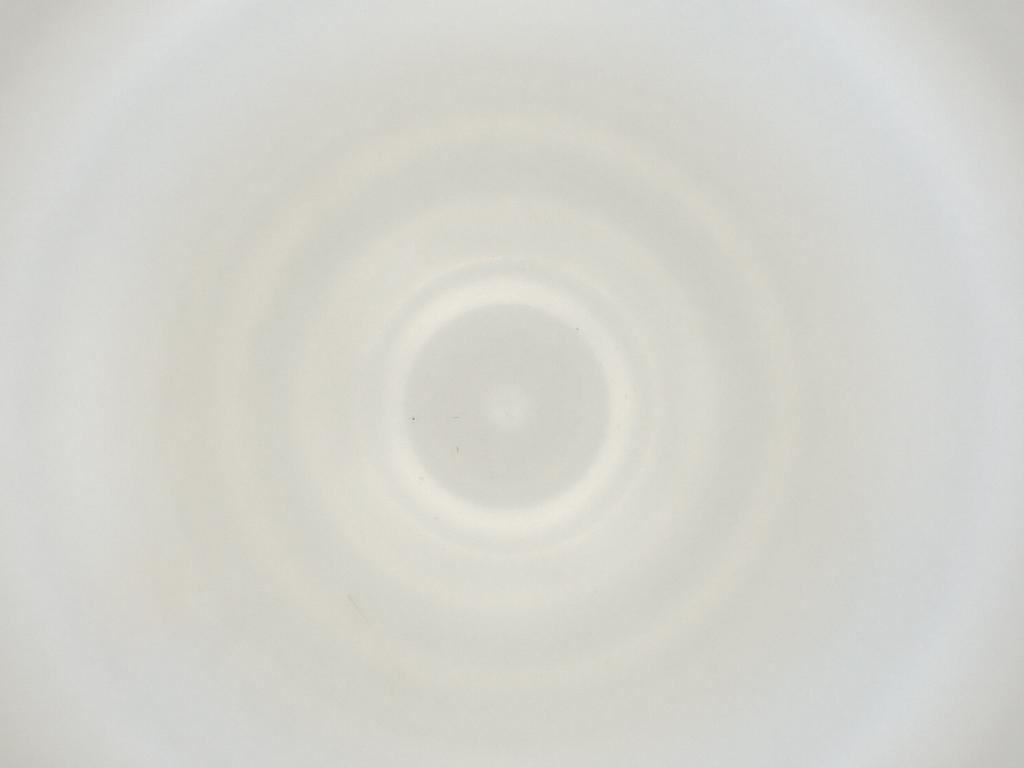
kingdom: Animalia
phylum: Arthropoda
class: Insecta
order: Diptera
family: Cecidomyiidae
